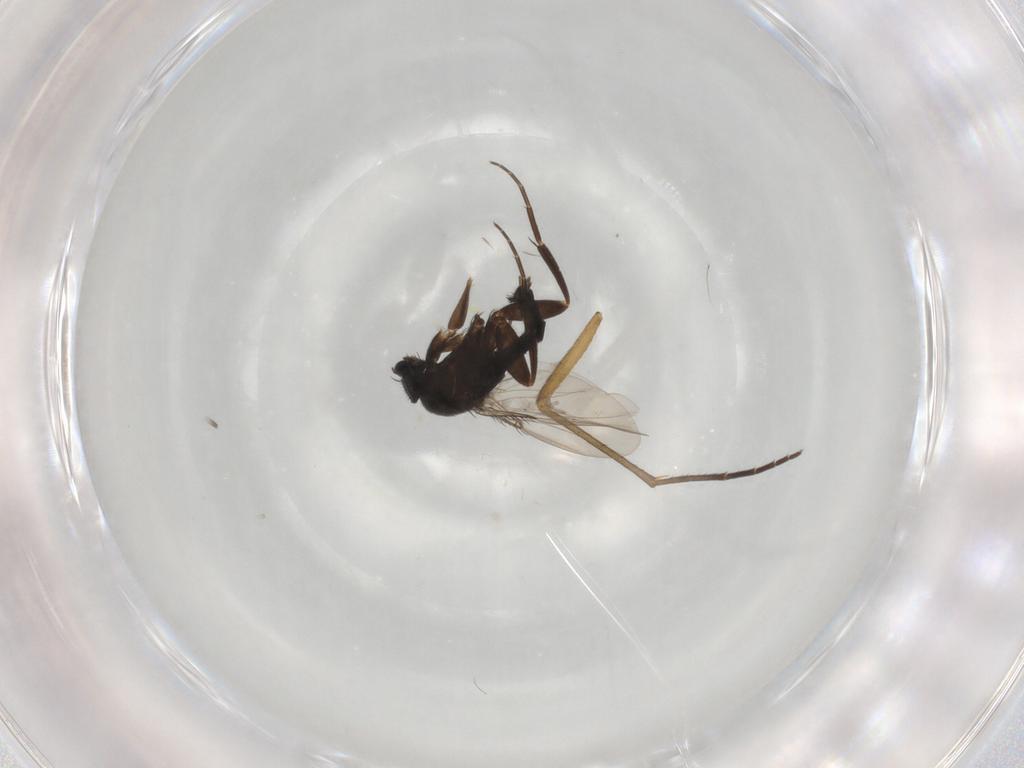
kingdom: Animalia
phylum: Arthropoda
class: Insecta
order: Diptera
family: Phoridae
